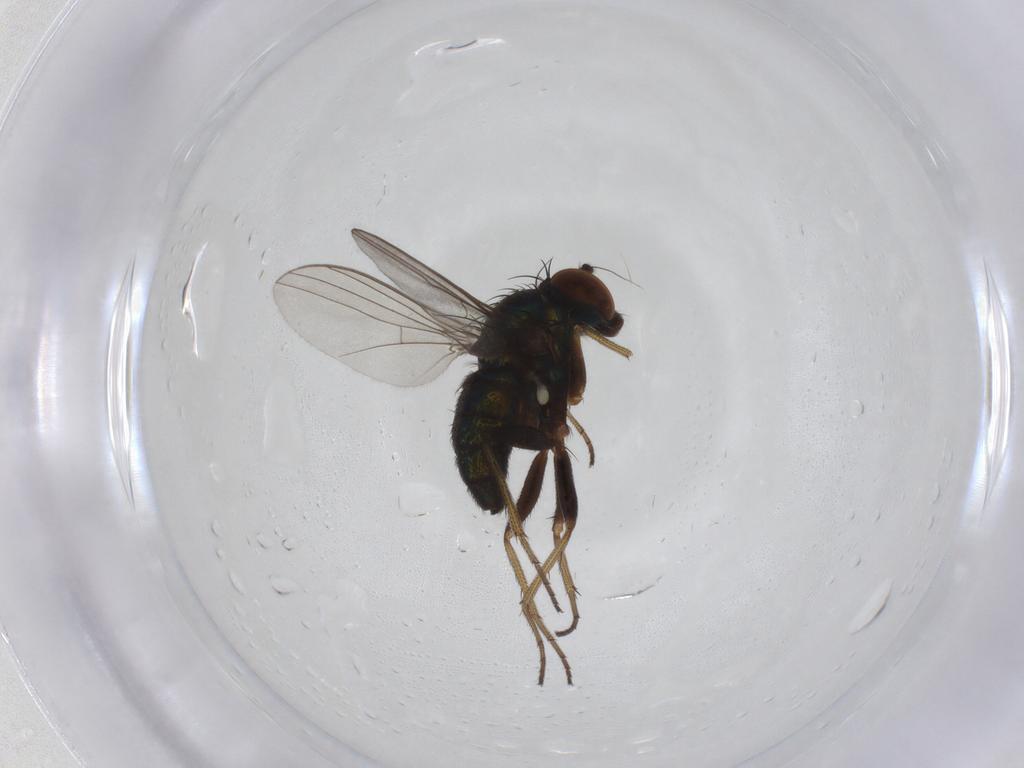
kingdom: Animalia
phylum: Arthropoda
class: Insecta
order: Diptera
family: Dolichopodidae
